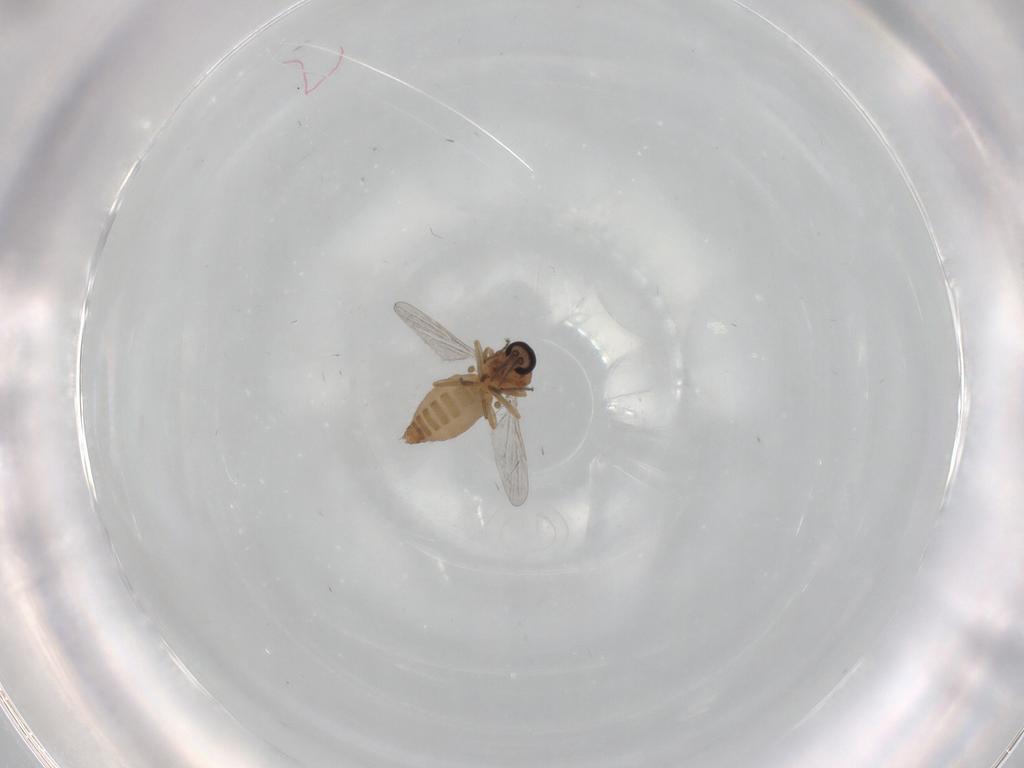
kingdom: Animalia
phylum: Arthropoda
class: Insecta
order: Diptera
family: Ceratopogonidae
